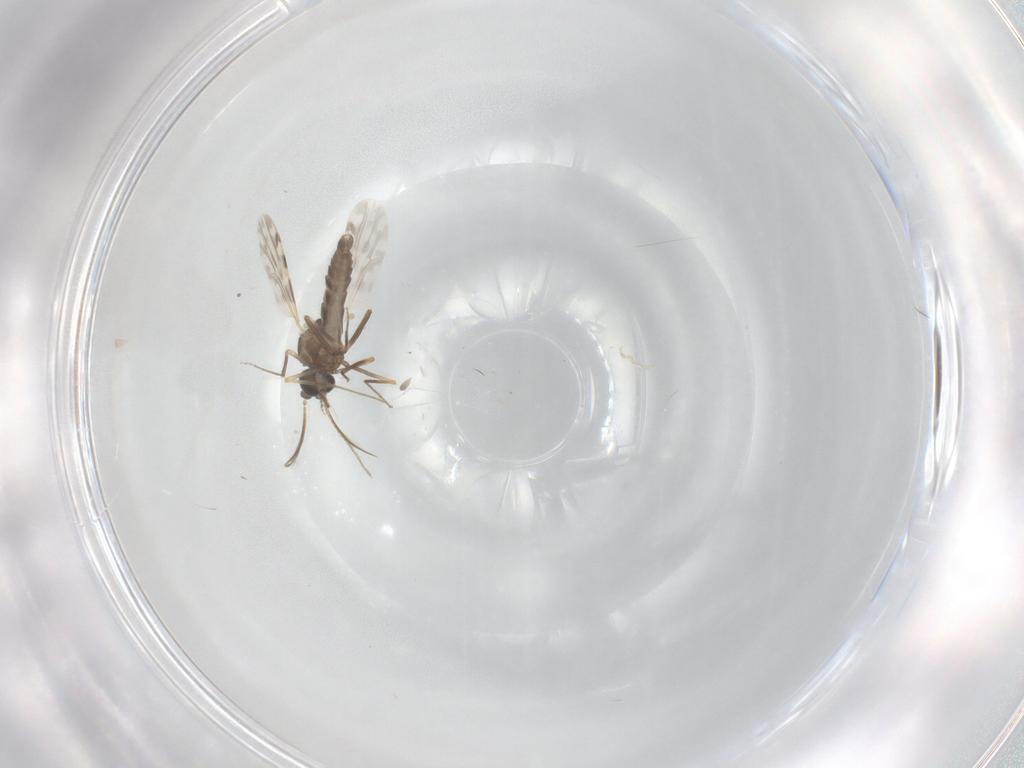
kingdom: Animalia
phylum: Arthropoda
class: Insecta
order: Diptera
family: Ceratopogonidae
